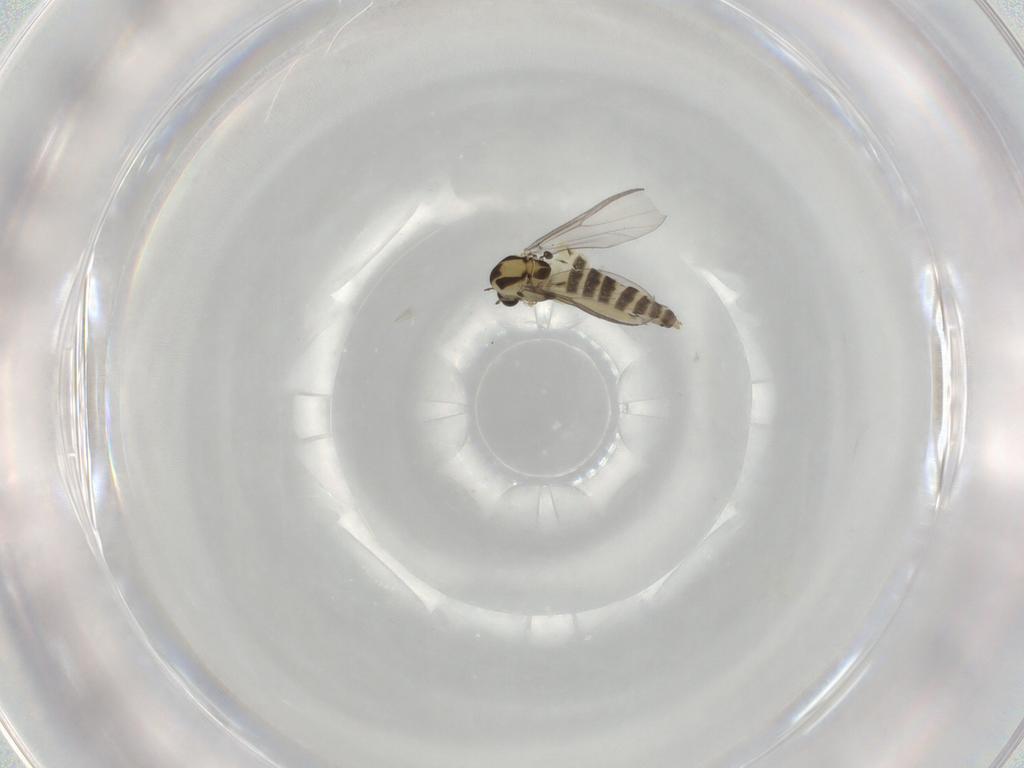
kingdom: Animalia
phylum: Arthropoda
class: Insecta
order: Diptera
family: Chironomidae
